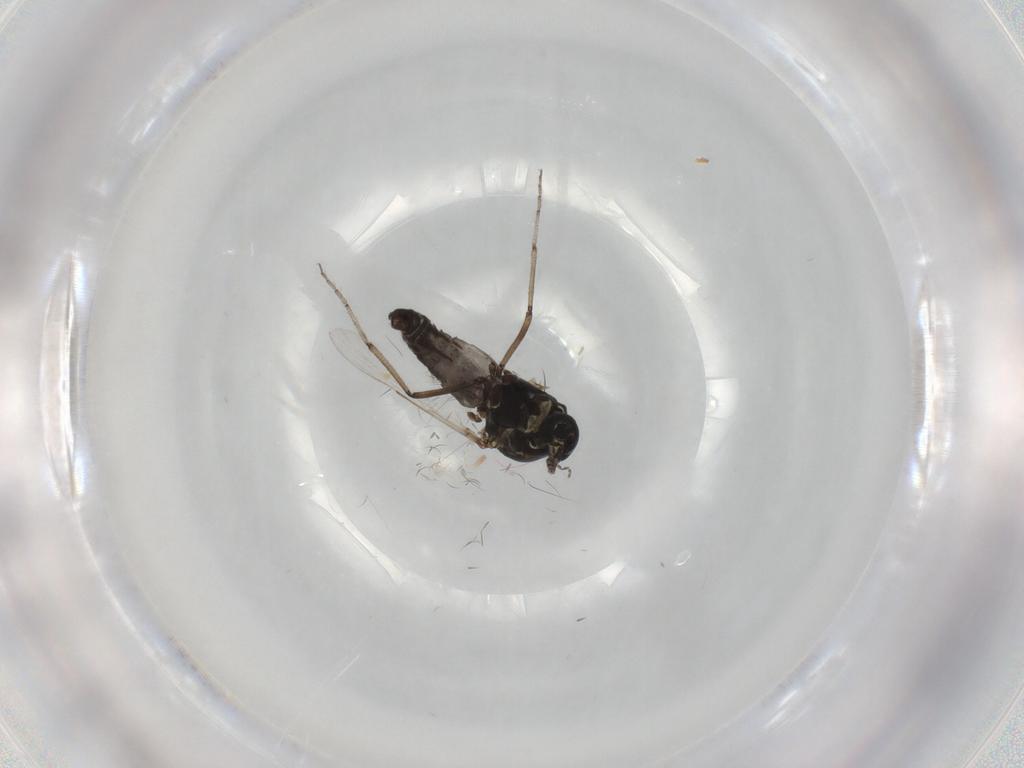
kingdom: Animalia
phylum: Arthropoda
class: Insecta
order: Diptera
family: Ceratopogonidae
